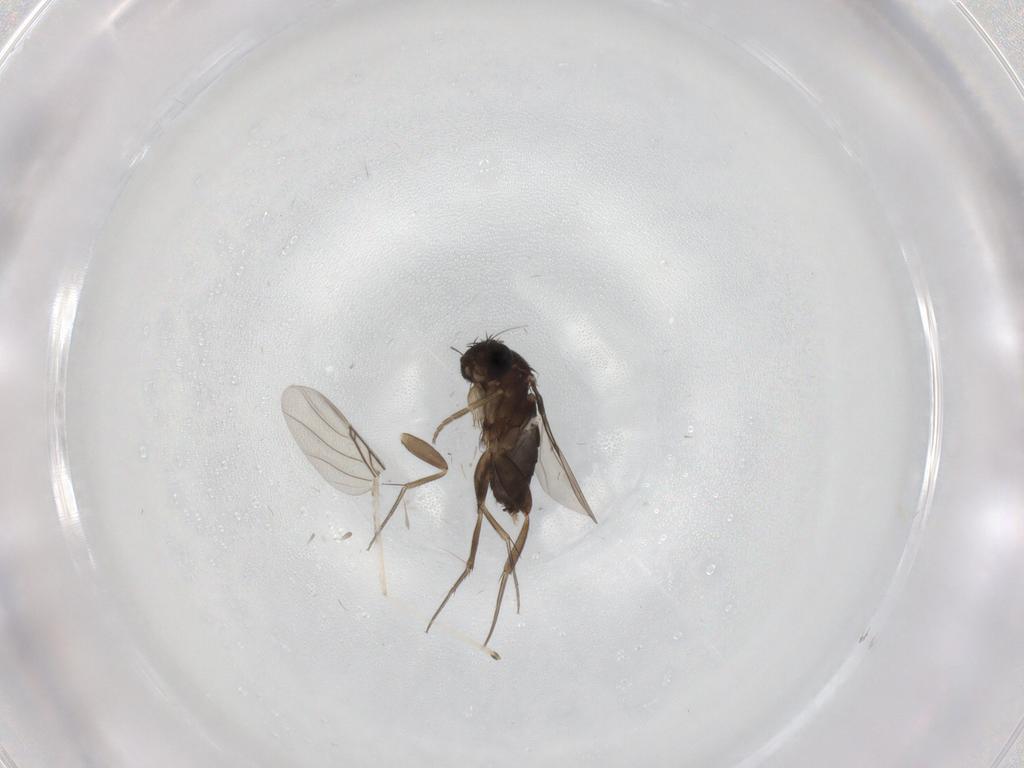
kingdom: Animalia
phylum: Arthropoda
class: Insecta
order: Diptera
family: Phoridae
